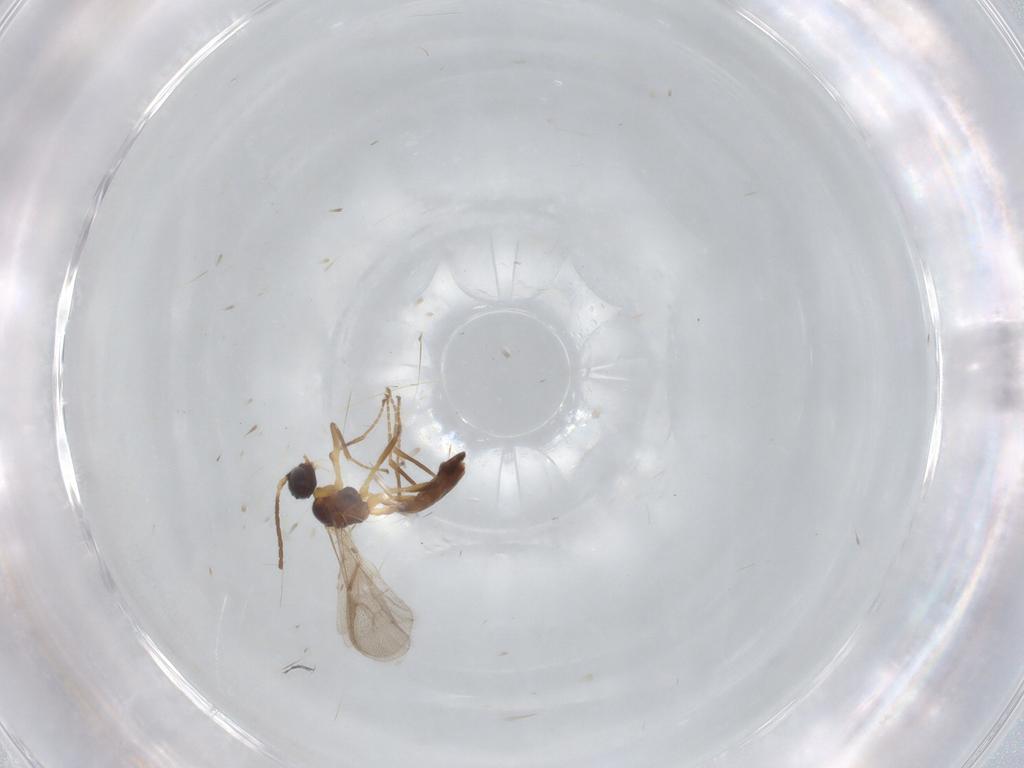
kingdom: Animalia
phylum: Arthropoda
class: Insecta
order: Hymenoptera
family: Braconidae
